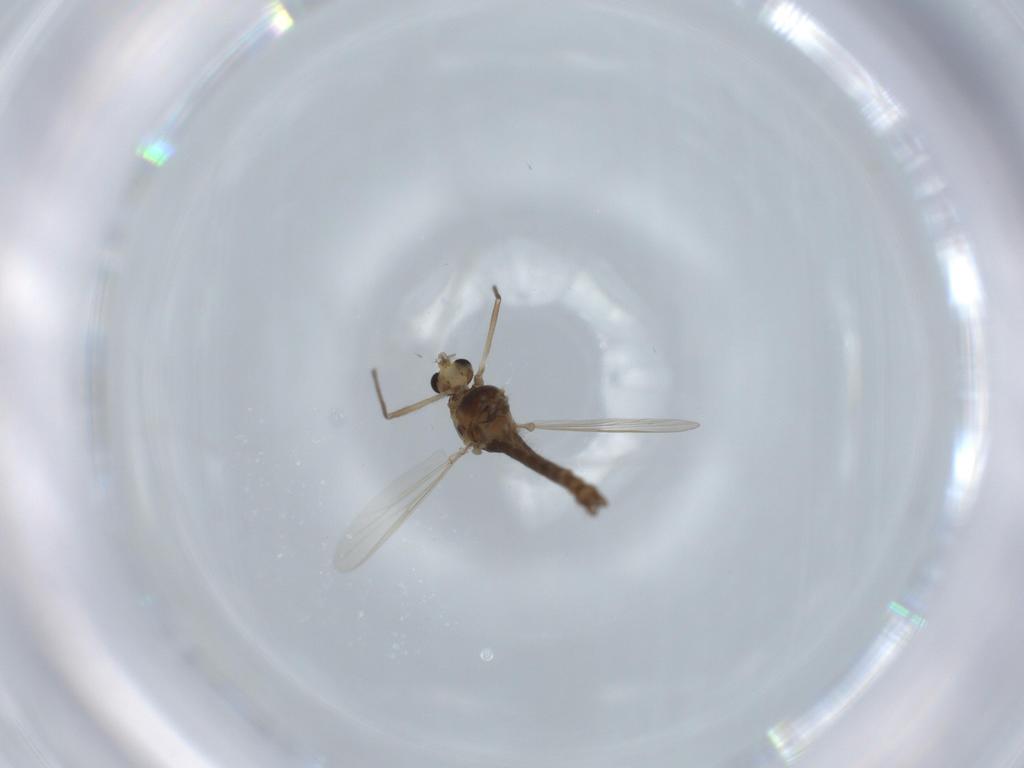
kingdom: Animalia
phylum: Arthropoda
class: Insecta
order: Diptera
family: Chironomidae
